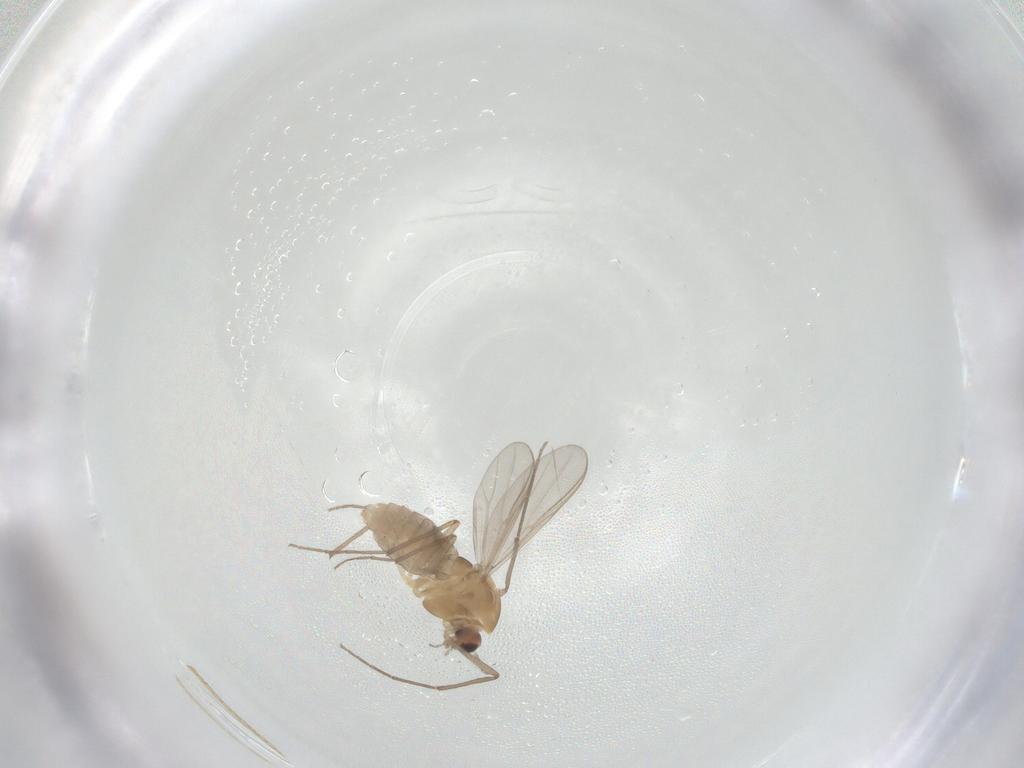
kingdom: Animalia
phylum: Arthropoda
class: Insecta
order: Diptera
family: Chironomidae
